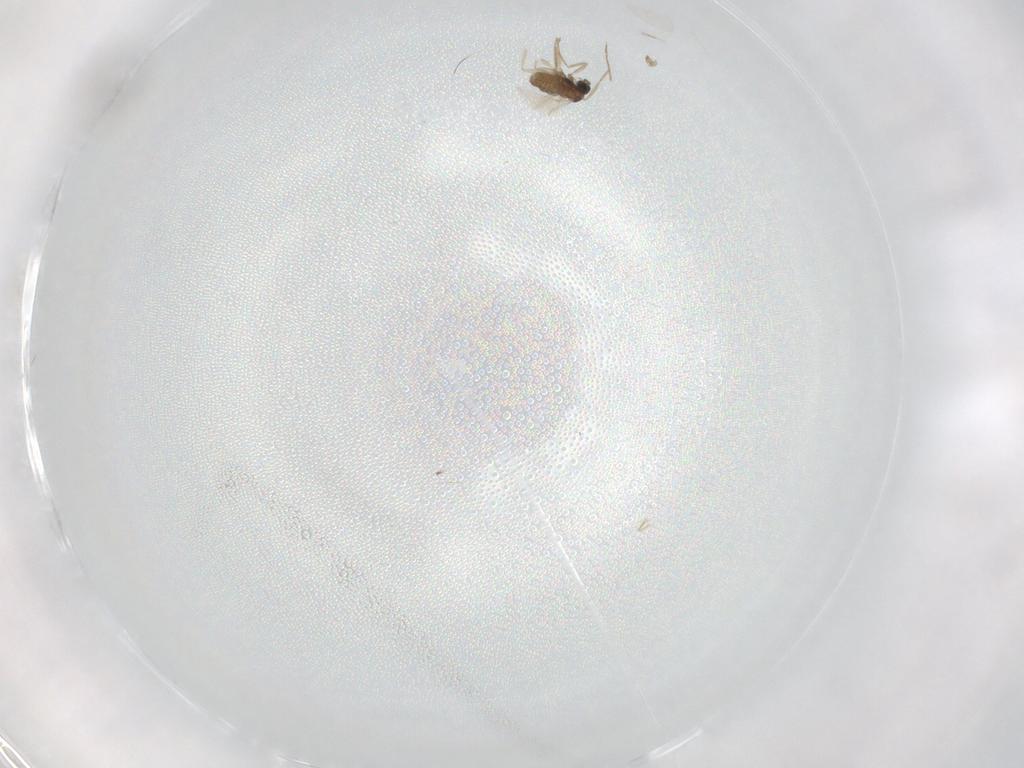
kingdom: Animalia
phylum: Arthropoda
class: Insecta
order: Diptera
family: Cecidomyiidae
